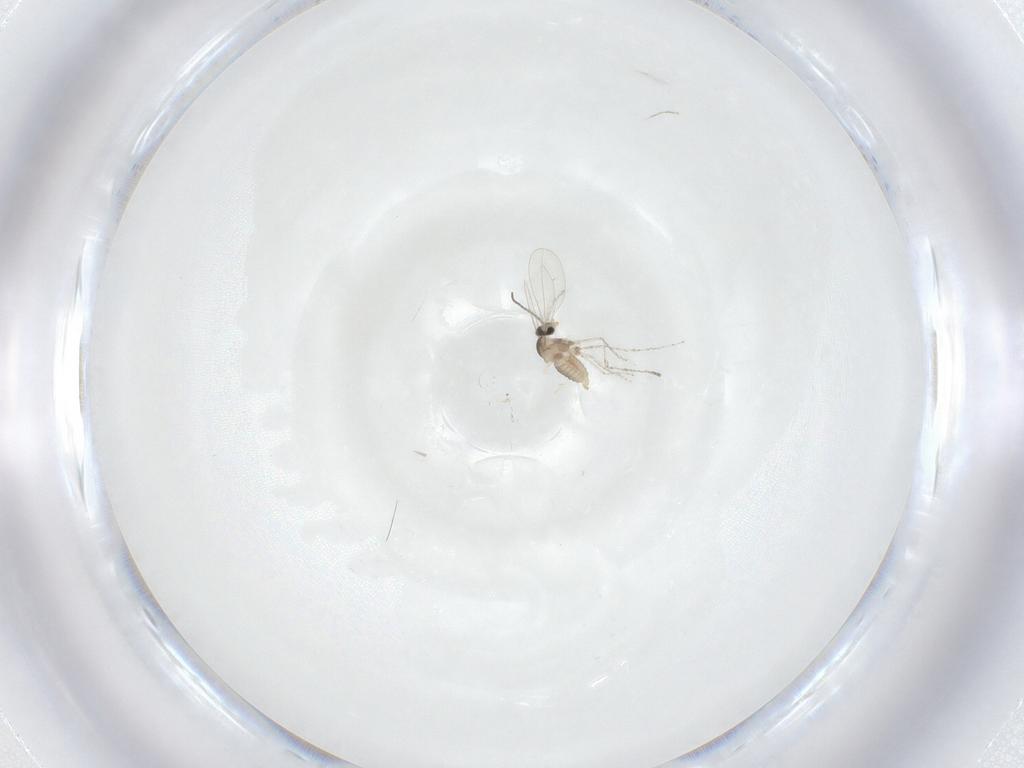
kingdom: Animalia
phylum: Arthropoda
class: Insecta
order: Diptera
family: Cecidomyiidae
